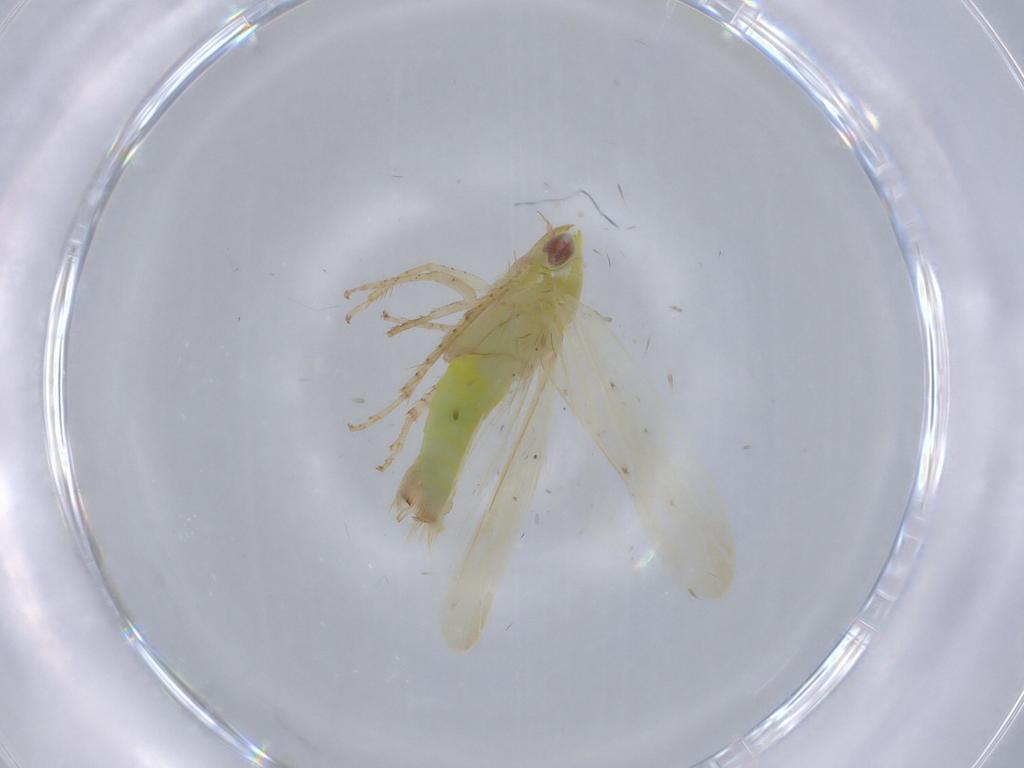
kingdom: Animalia
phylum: Arthropoda
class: Insecta
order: Hemiptera
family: Cicadellidae
